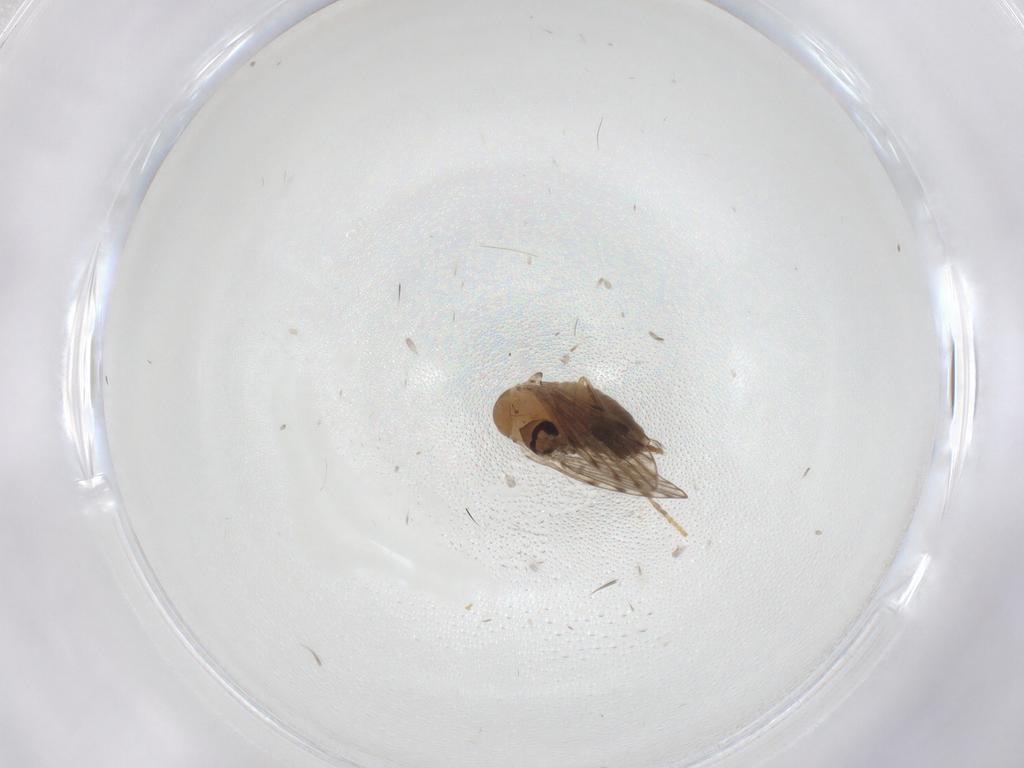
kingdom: Animalia
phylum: Arthropoda
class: Insecta
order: Diptera
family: Psychodidae
